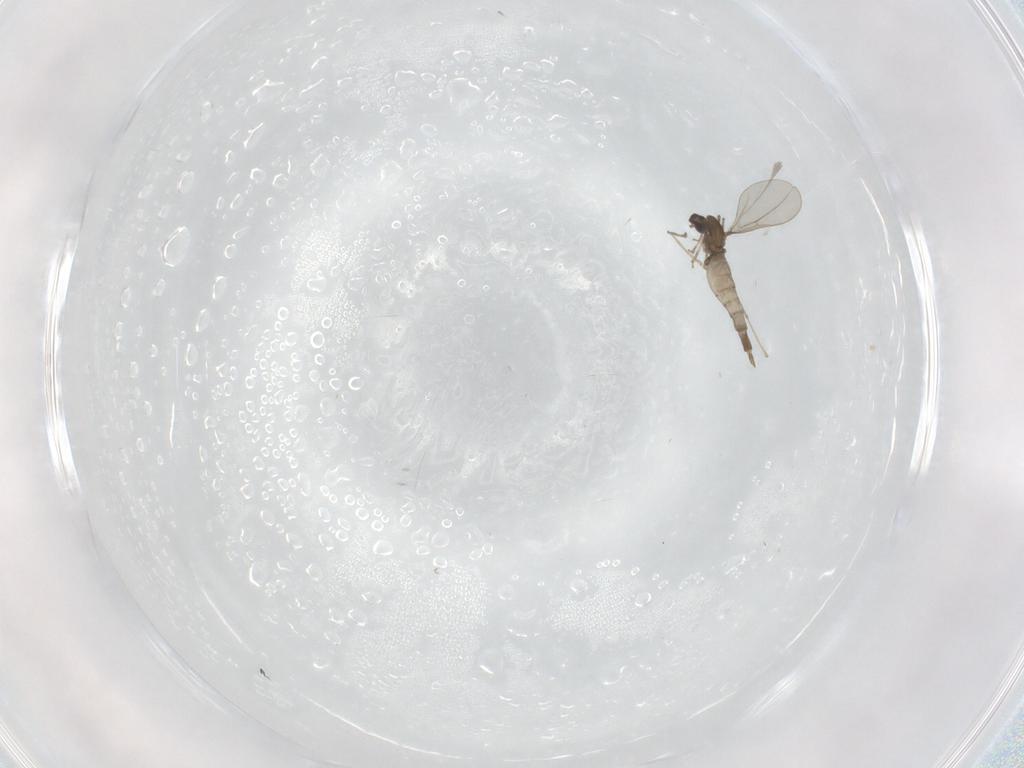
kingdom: Animalia
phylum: Arthropoda
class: Insecta
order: Diptera
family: Cecidomyiidae
